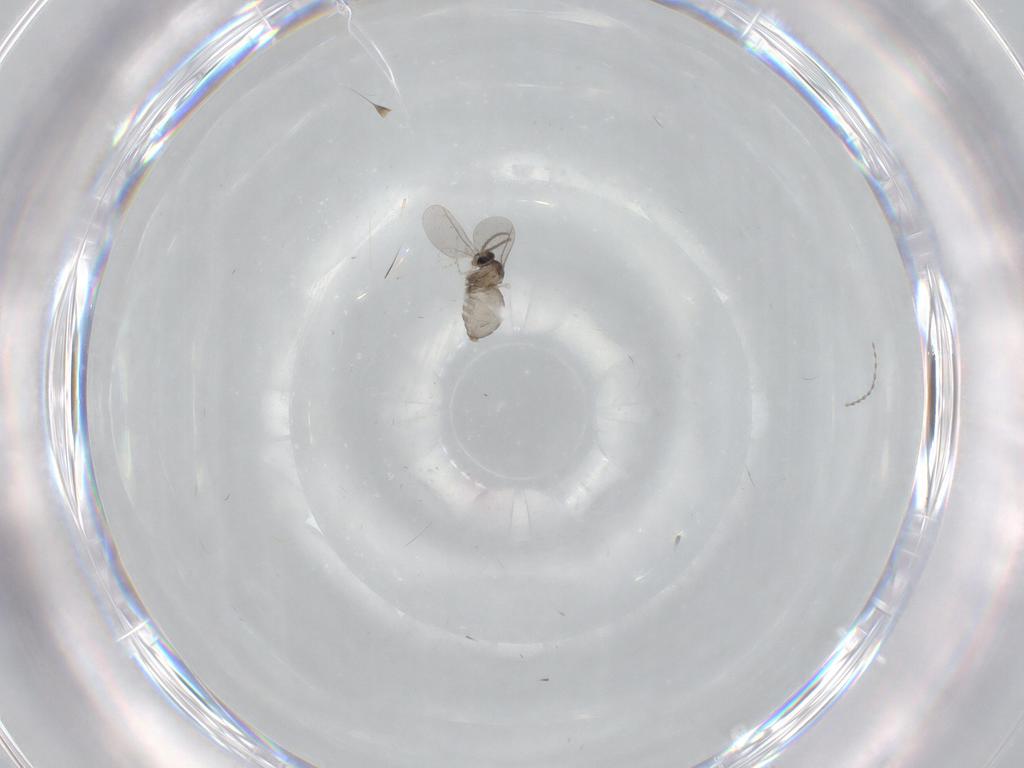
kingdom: Animalia
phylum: Arthropoda
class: Insecta
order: Diptera
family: Cecidomyiidae
